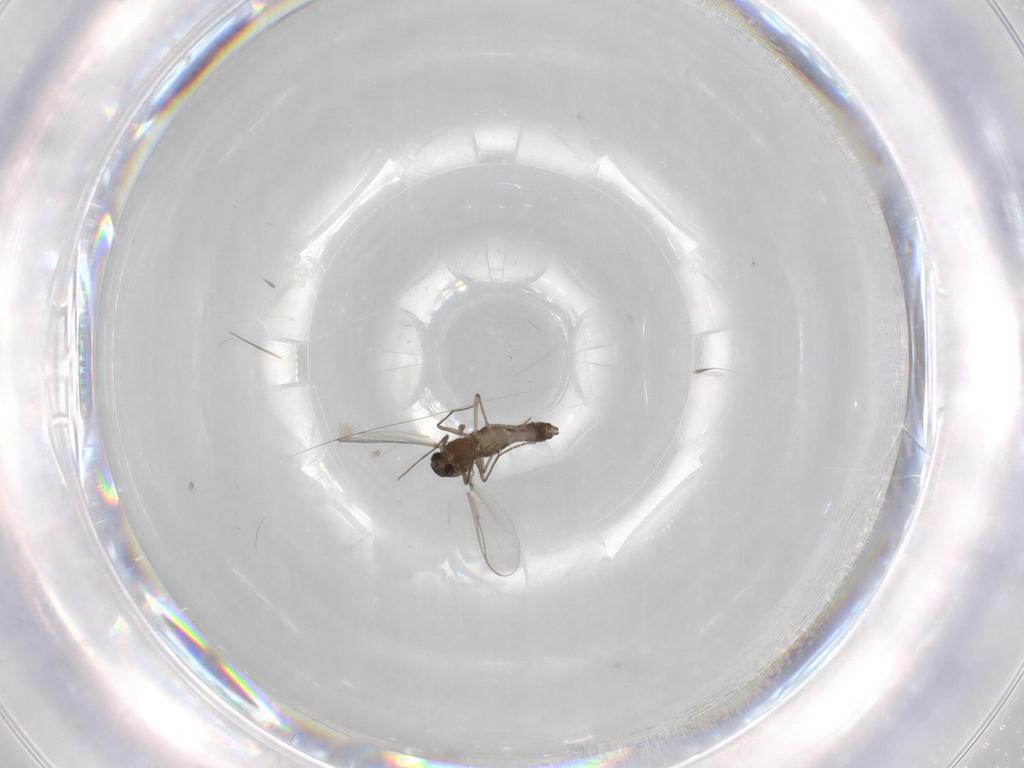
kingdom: Animalia
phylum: Arthropoda
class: Insecta
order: Diptera
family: Chironomidae
